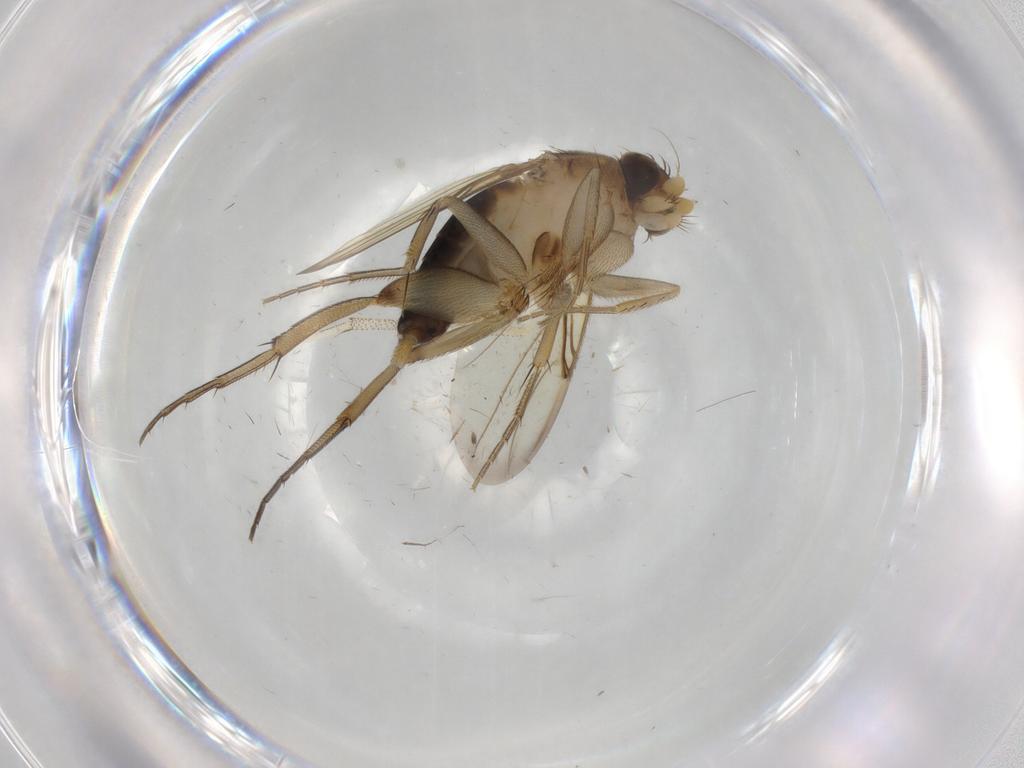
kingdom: Animalia
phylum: Arthropoda
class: Insecta
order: Diptera
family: Phoridae
